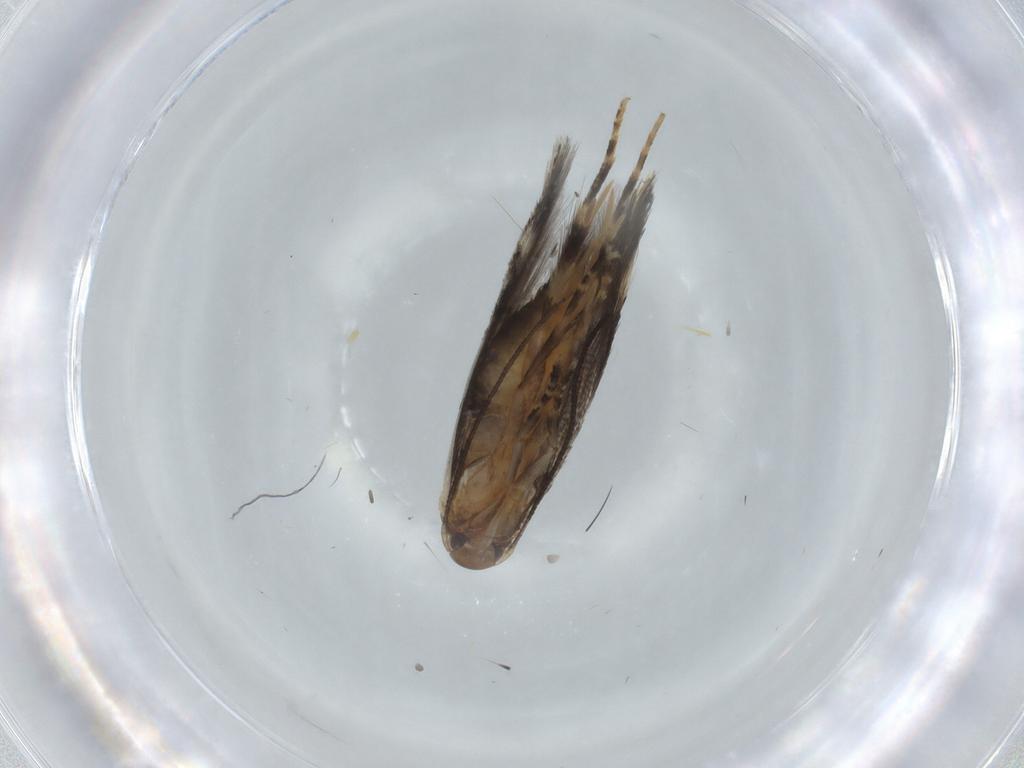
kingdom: Animalia
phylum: Arthropoda
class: Insecta
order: Lepidoptera
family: Elachistidae
